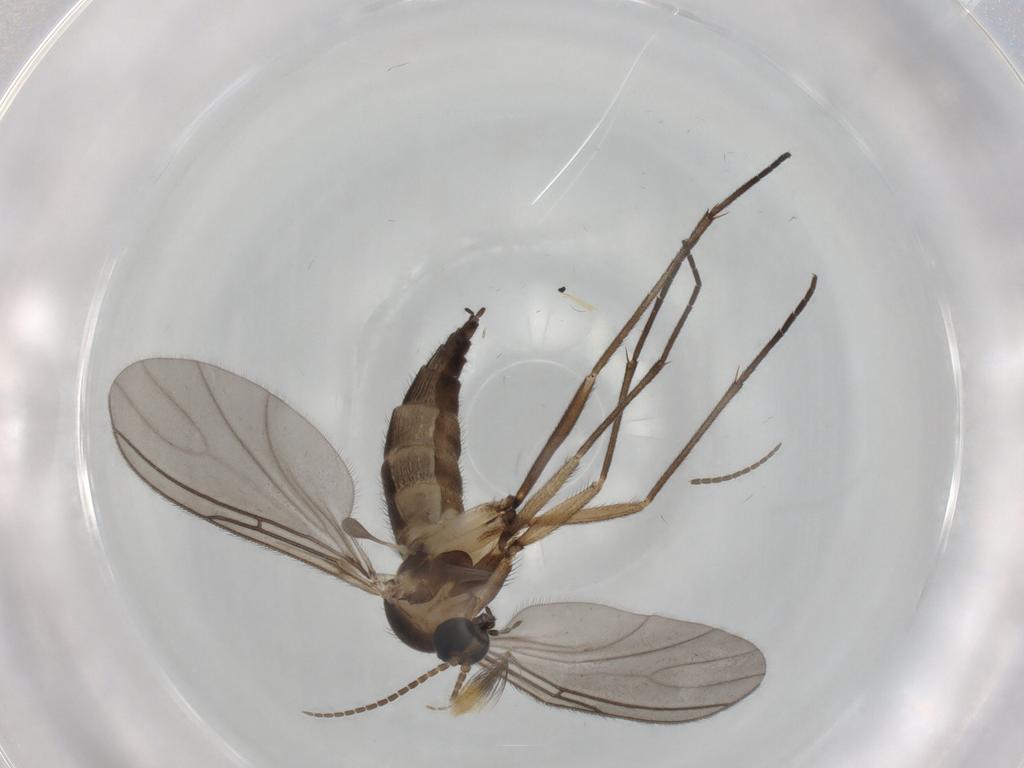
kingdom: Animalia
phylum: Arthropoda
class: Insecta
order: Diptera
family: Sciaridae
